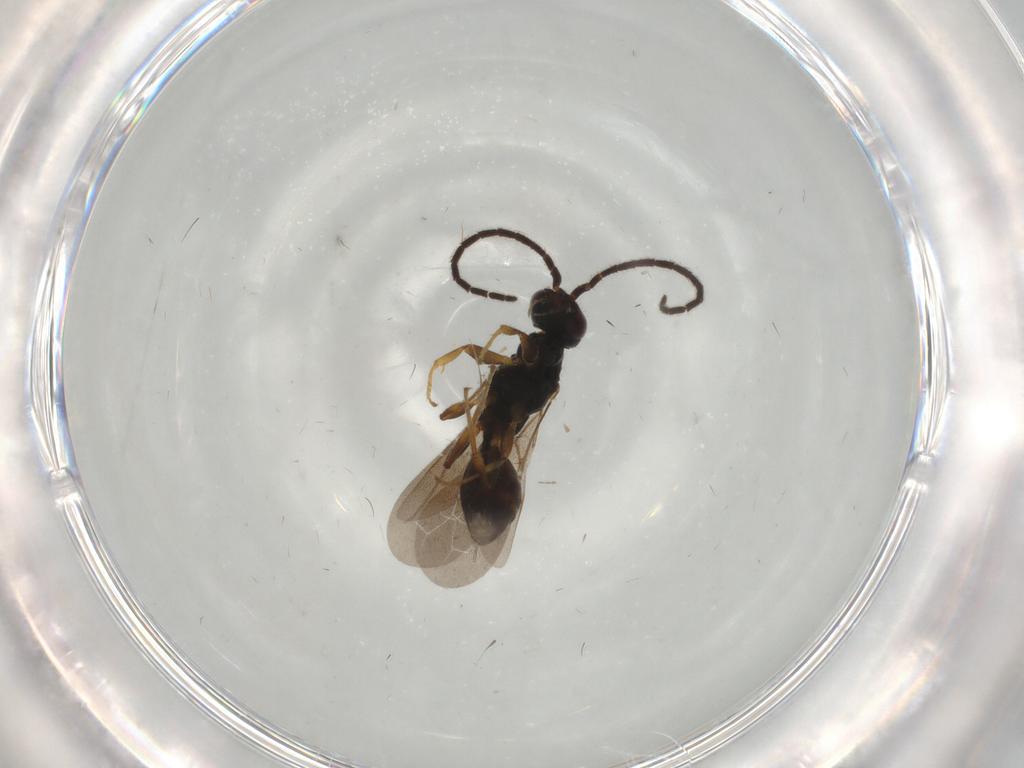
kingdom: Animalia
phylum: Arthropoda
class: Insecta
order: Hymenoptera
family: Bethylidae
